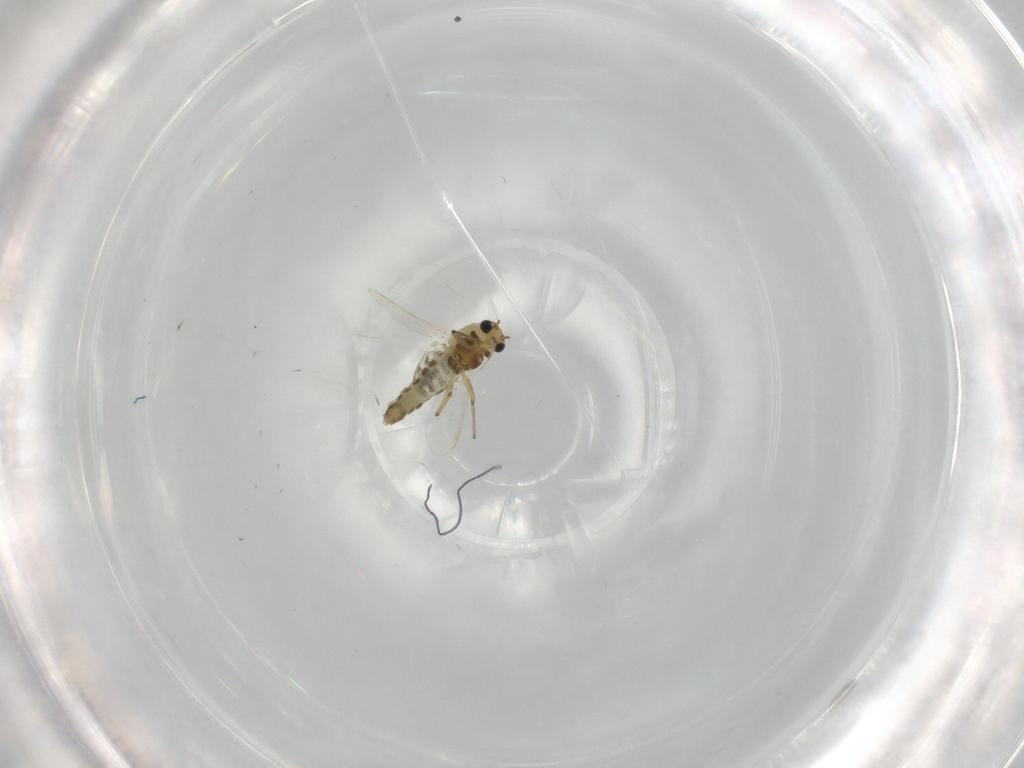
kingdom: Animalia
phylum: Arthropoda
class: Insecta
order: Diptera
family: Chironomidae
